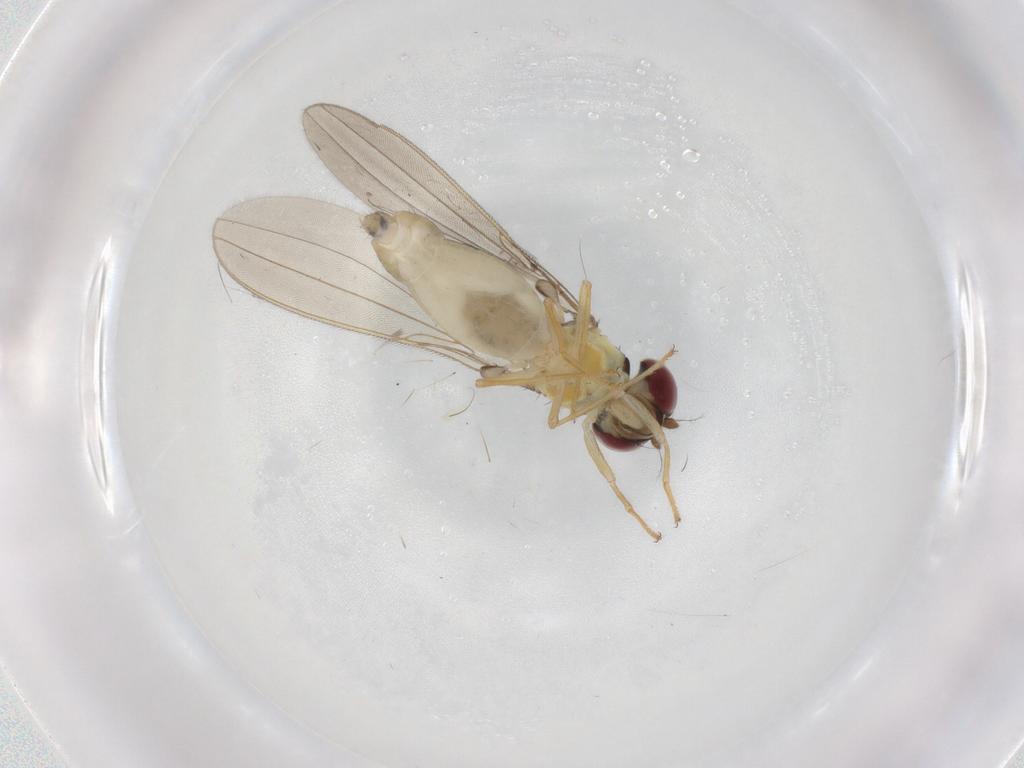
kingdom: Animalia
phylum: Arthropoda
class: Insecta
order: Diptera
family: Asteiidae
